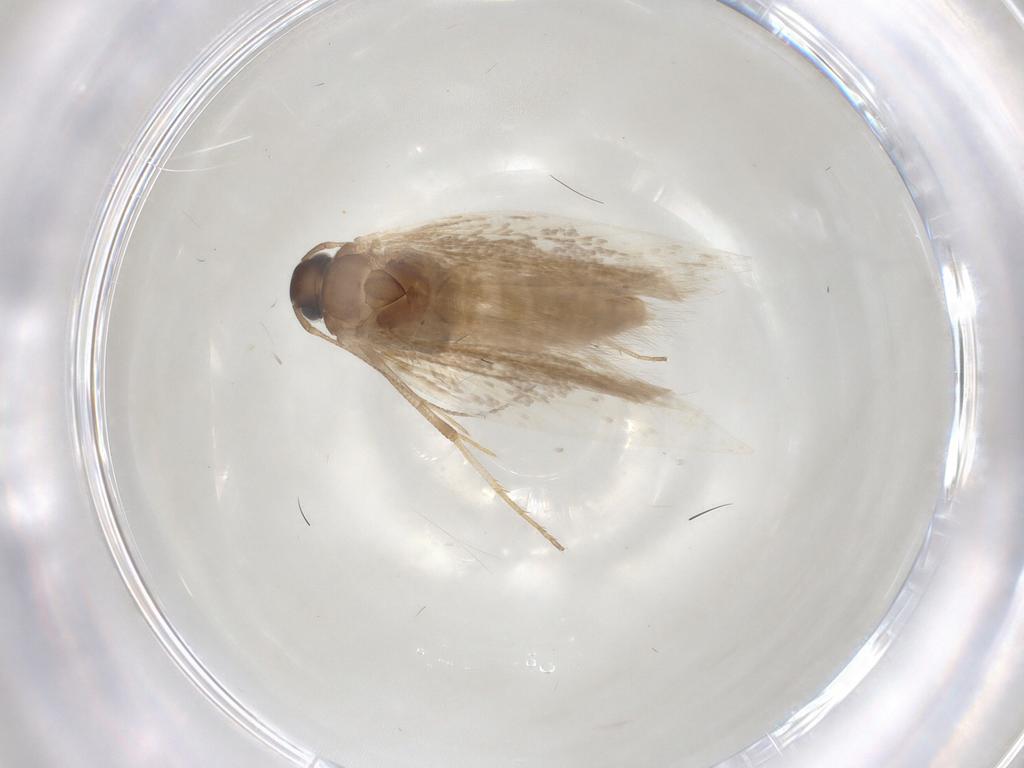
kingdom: Animalia
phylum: Arthropoda
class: Insecta
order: Lepidoptera
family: Gelechiidae
